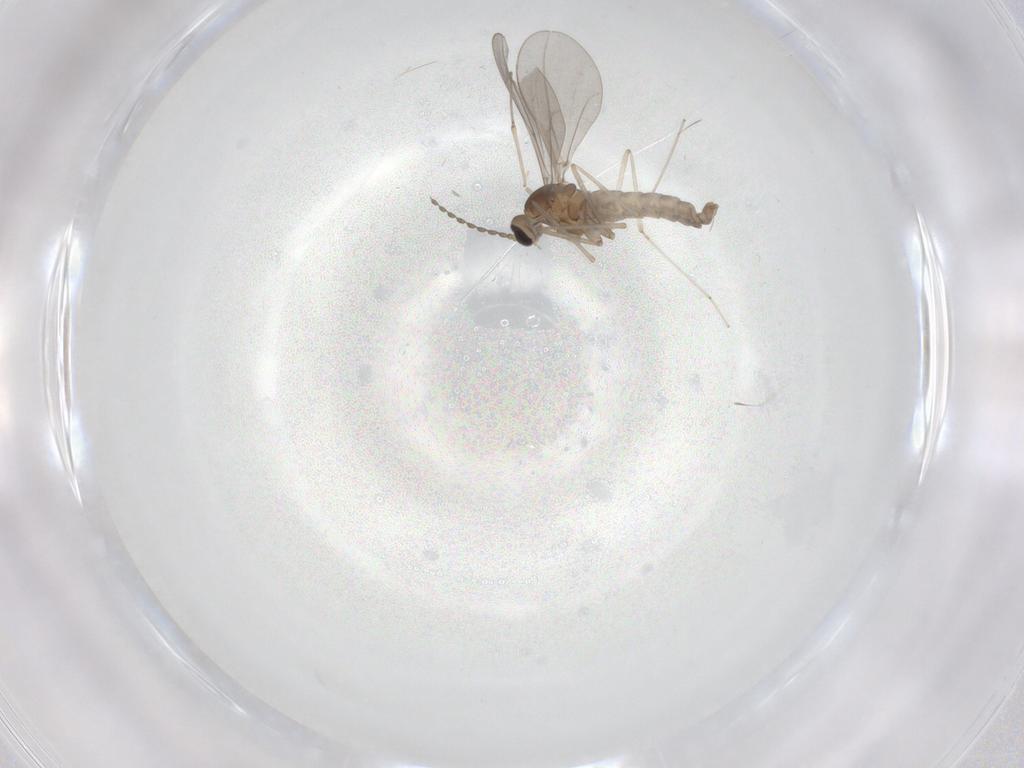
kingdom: Animalia
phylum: Arthropoda
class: Insecta
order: Diptera
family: Cecidomyiidae
